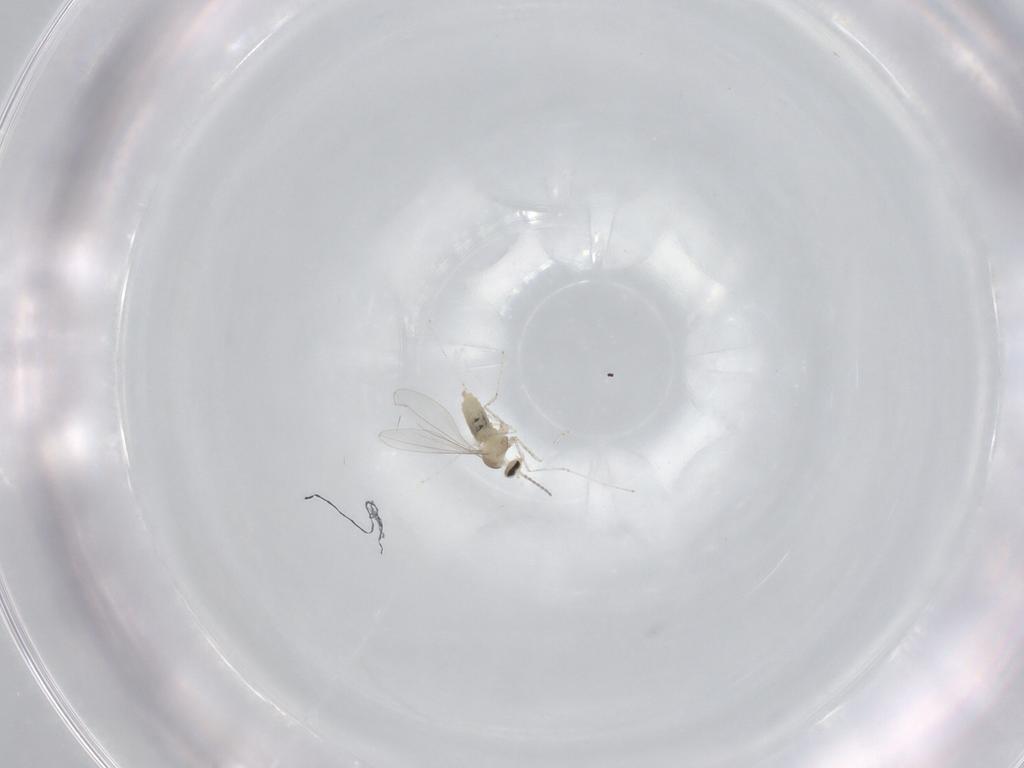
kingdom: Animalia
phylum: Arthropoda
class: Insecta
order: Diptera
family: Cecidomyiidae
